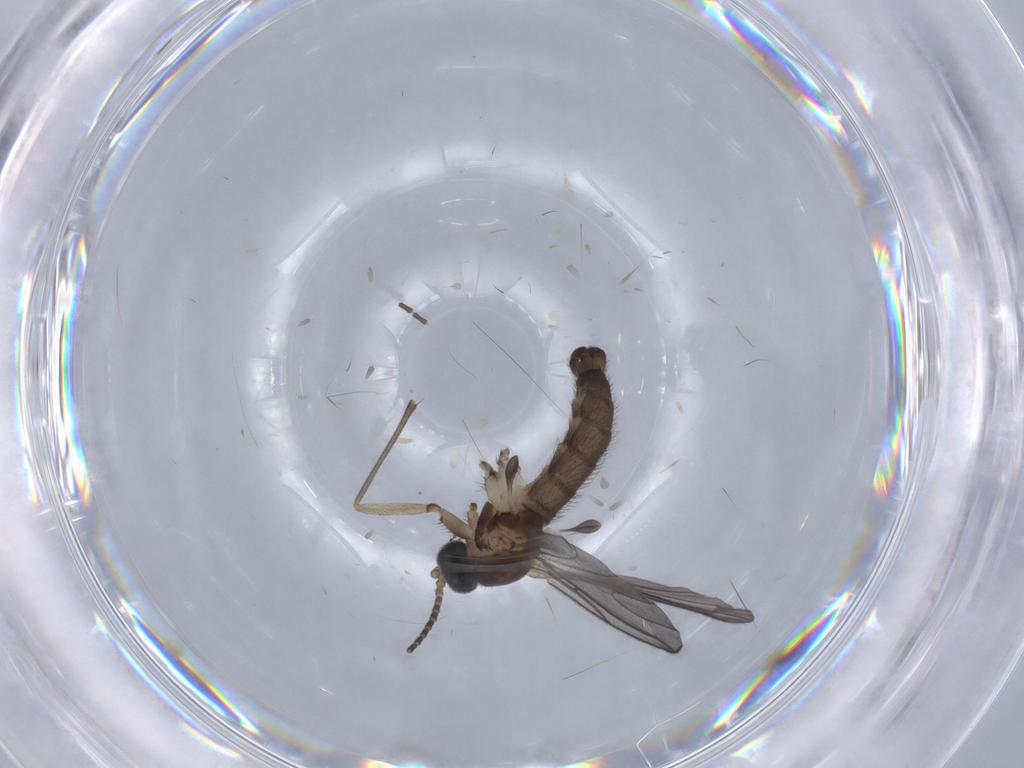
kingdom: Animalia
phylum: Arthropoda
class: Insecta
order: Diptera
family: Sciaridae
